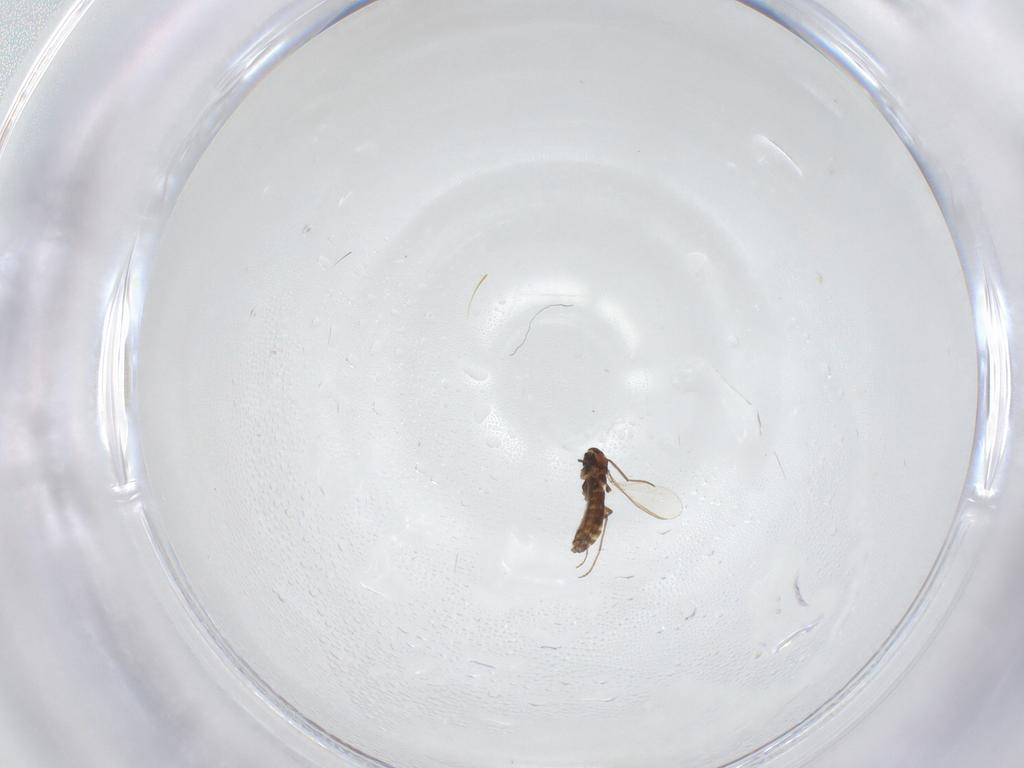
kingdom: Animalia
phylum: Arthropoda
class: Insecta
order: Diptera
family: Chironomidae
